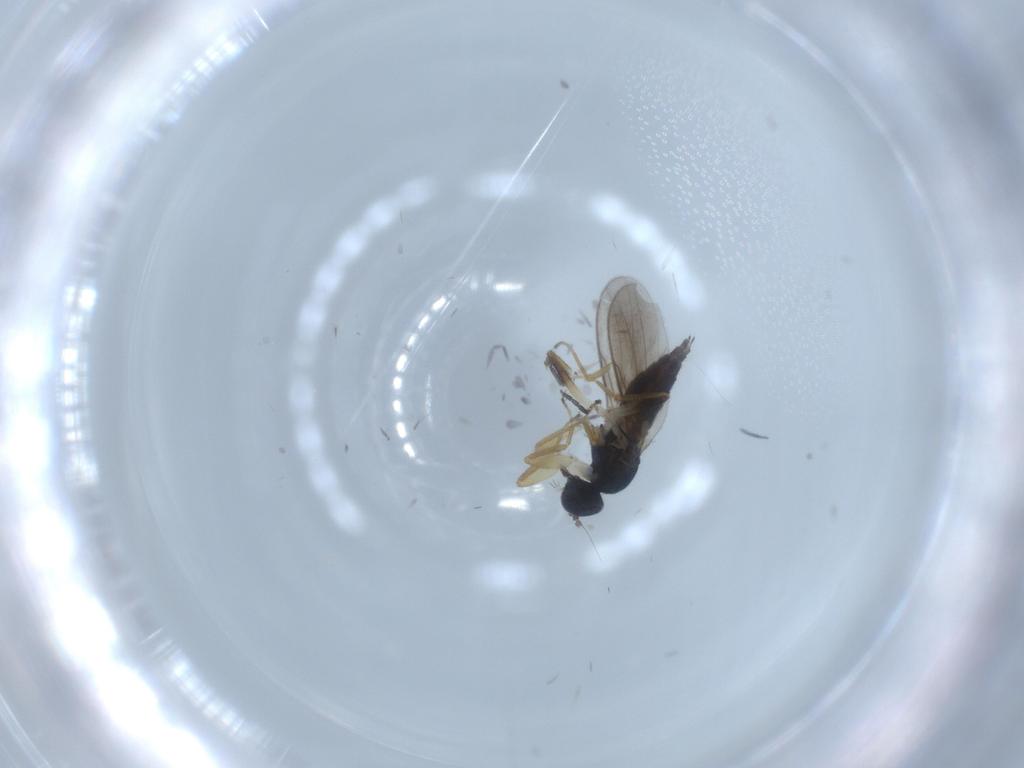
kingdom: Animalia
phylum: Arthropoda
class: Insecta
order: Diptera
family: Hybotidae
